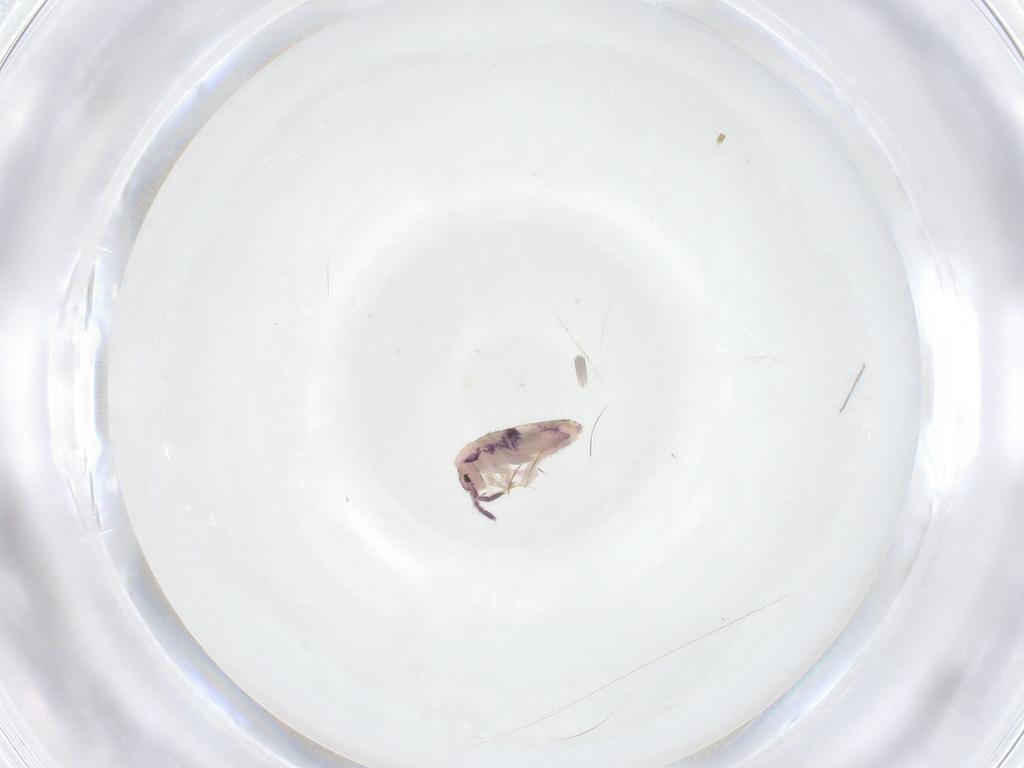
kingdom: Animalia
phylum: Arthropoda
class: Collembola
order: Entomobryomorpha
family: Entomobryidae
